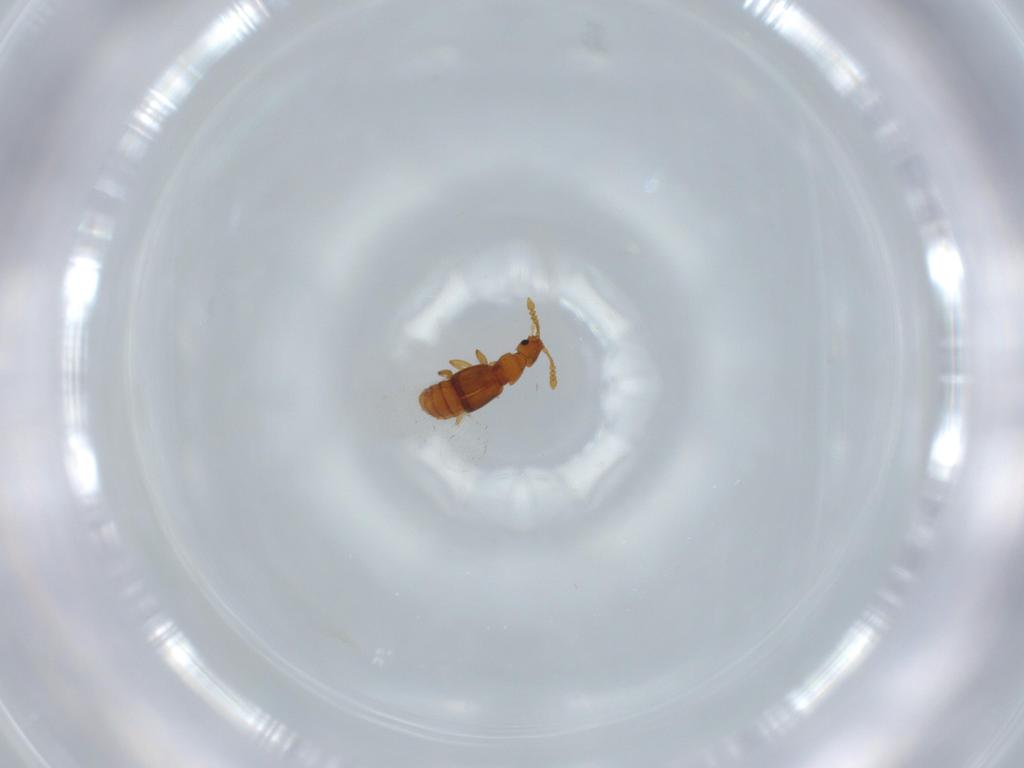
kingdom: Animalia
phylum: Arthropoda
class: Insecta
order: Coleoptera
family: Staphylinidae
